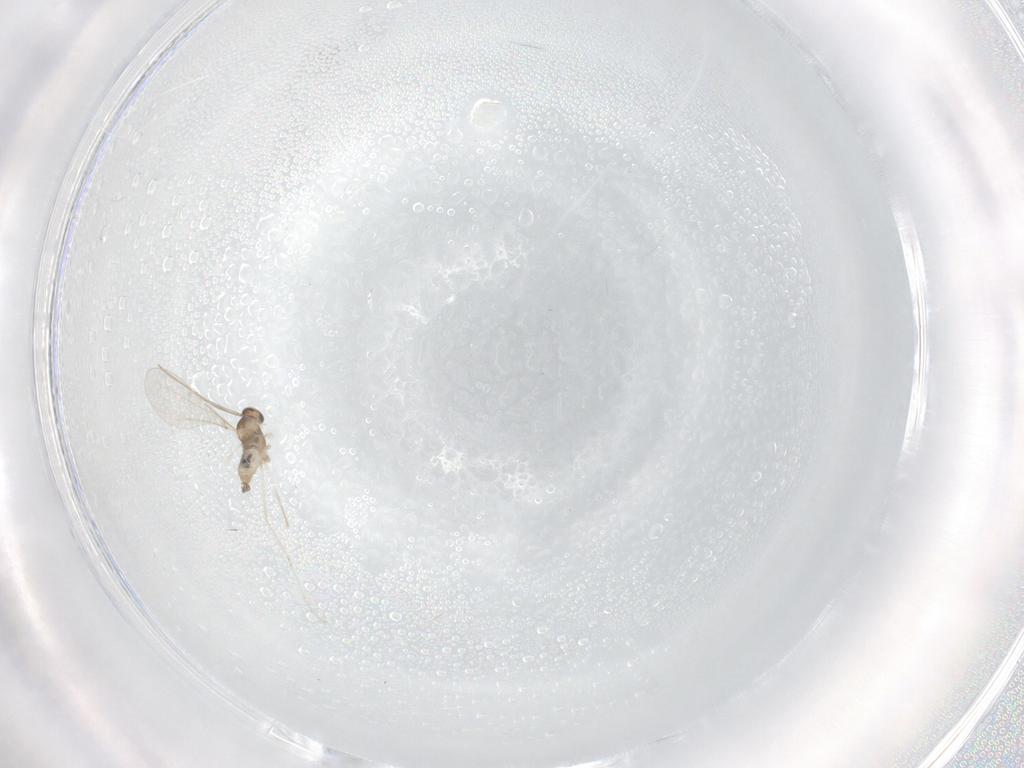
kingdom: Animalia
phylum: Arthropoda
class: Insecta
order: Diptera
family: Cecidomyiidae
